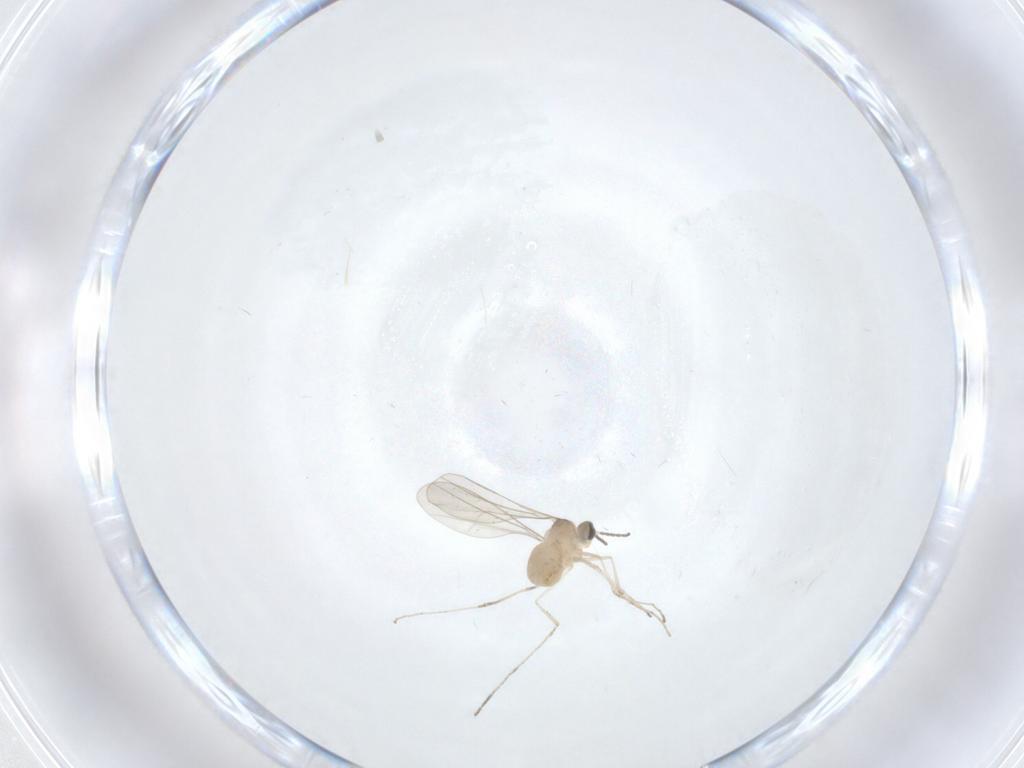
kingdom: Animalia
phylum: Arthropoda
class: Insecta
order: Diptera
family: Cecidomyiidae
